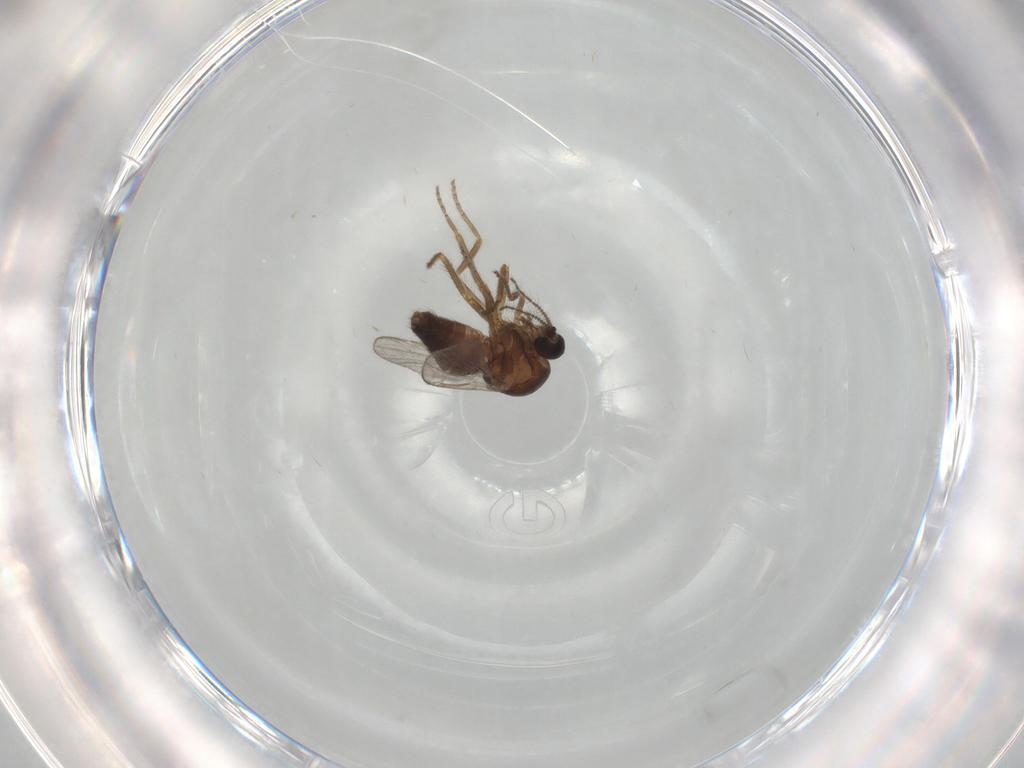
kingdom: Animalia
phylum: Arthropoda
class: Insecta
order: Diptera
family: Ceratopogonidae
